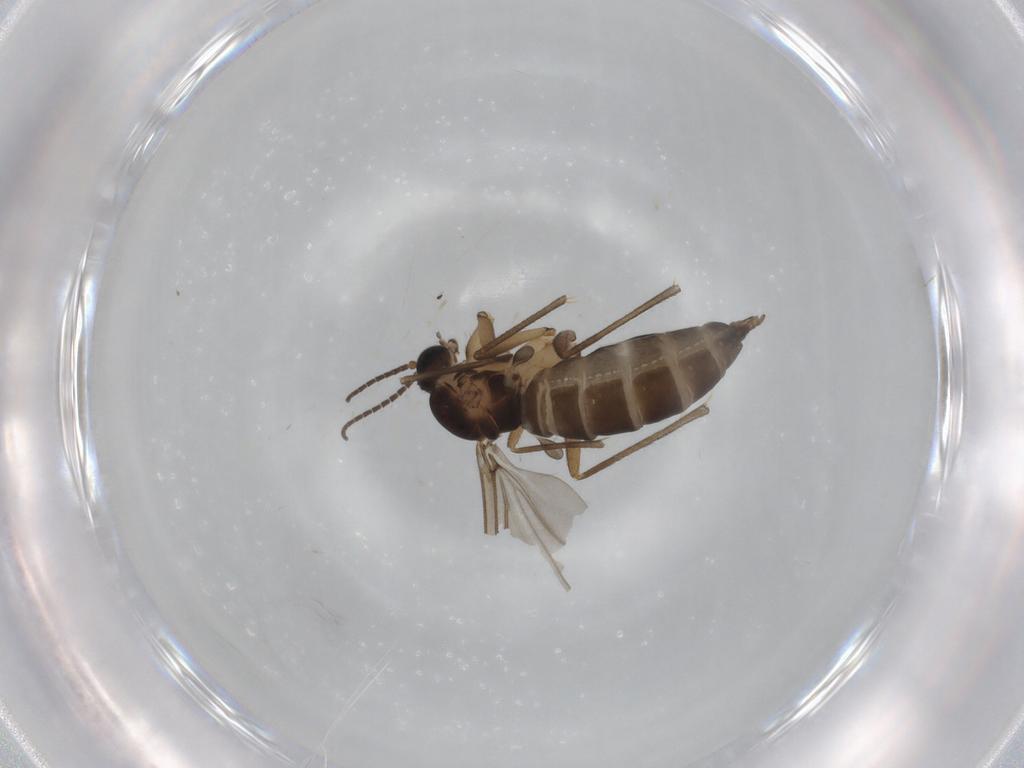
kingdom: Animalia
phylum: Arthropoda
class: Insecta
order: Diptera
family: Sciaridae
